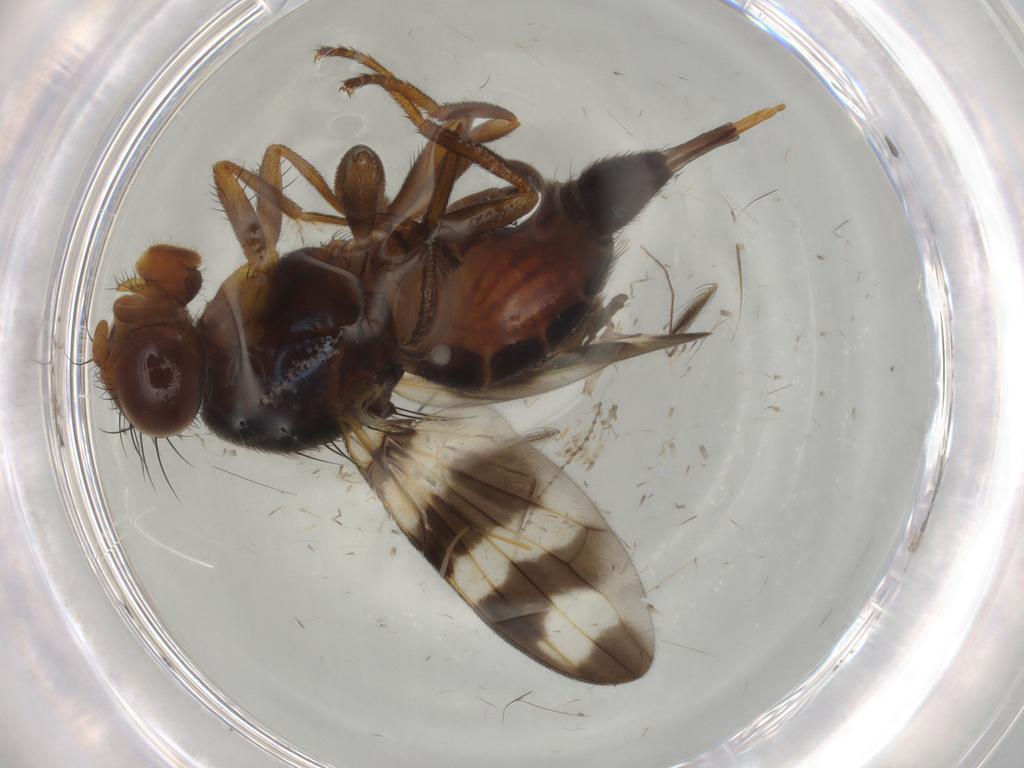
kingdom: Animalia
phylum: Arthropoda
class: Insecta
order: Diptera
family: Ulidiidae
